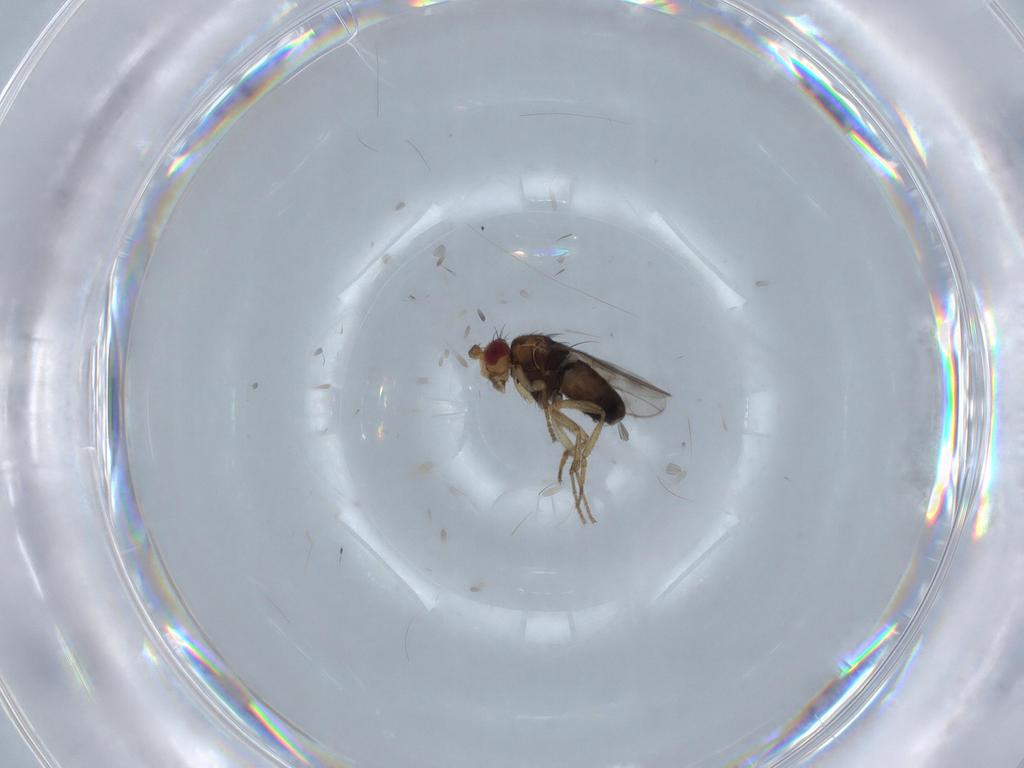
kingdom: Animalia
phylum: Arthropoda
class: Insecta
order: Diptera
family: Sphaeroceridae
